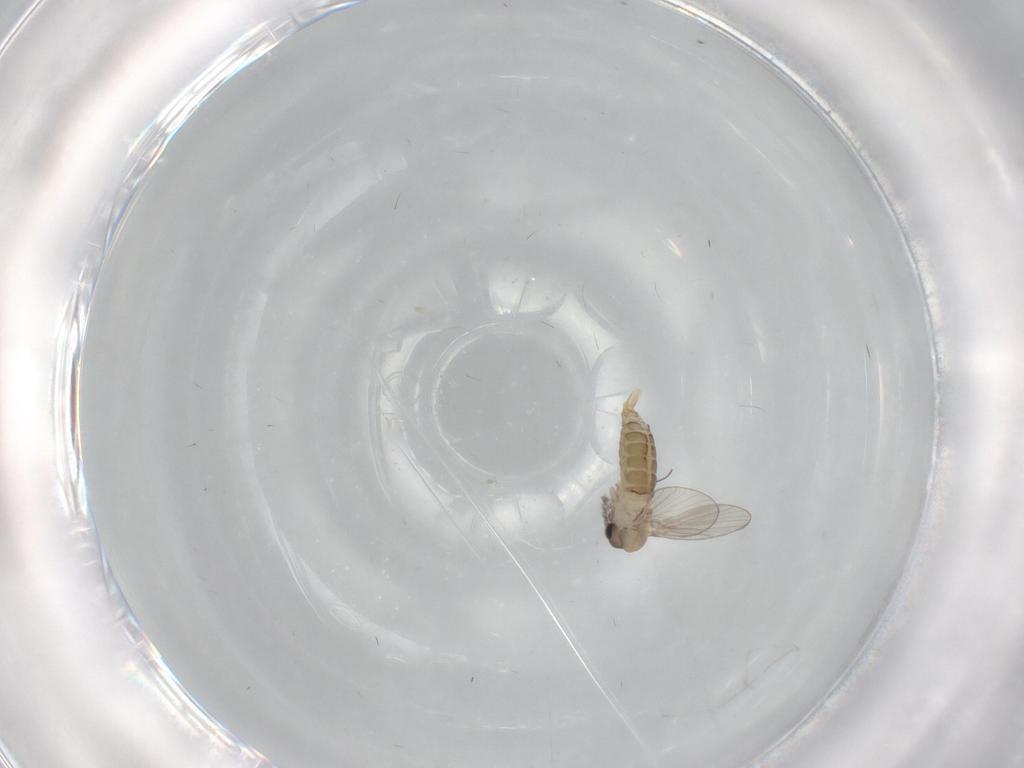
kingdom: Animalia
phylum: Arthropoda
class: Insecta
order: Diptera
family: Psychodidae
